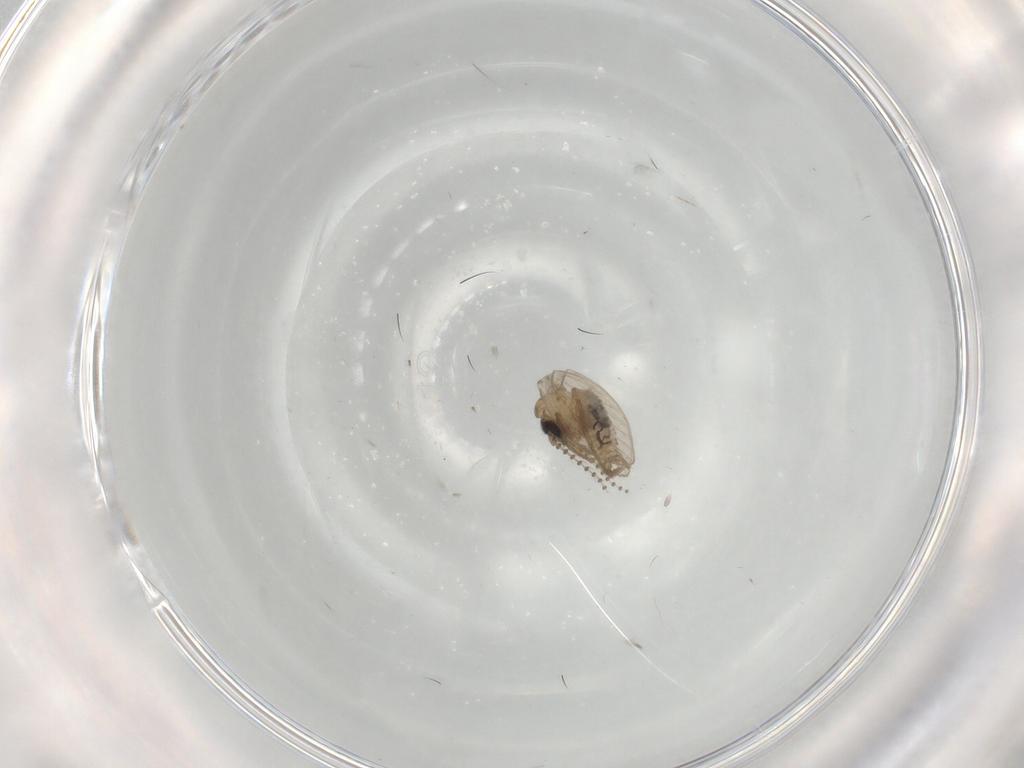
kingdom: Animalia
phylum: Arthropoda
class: Insecta
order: Diptera
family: Psychodidae
